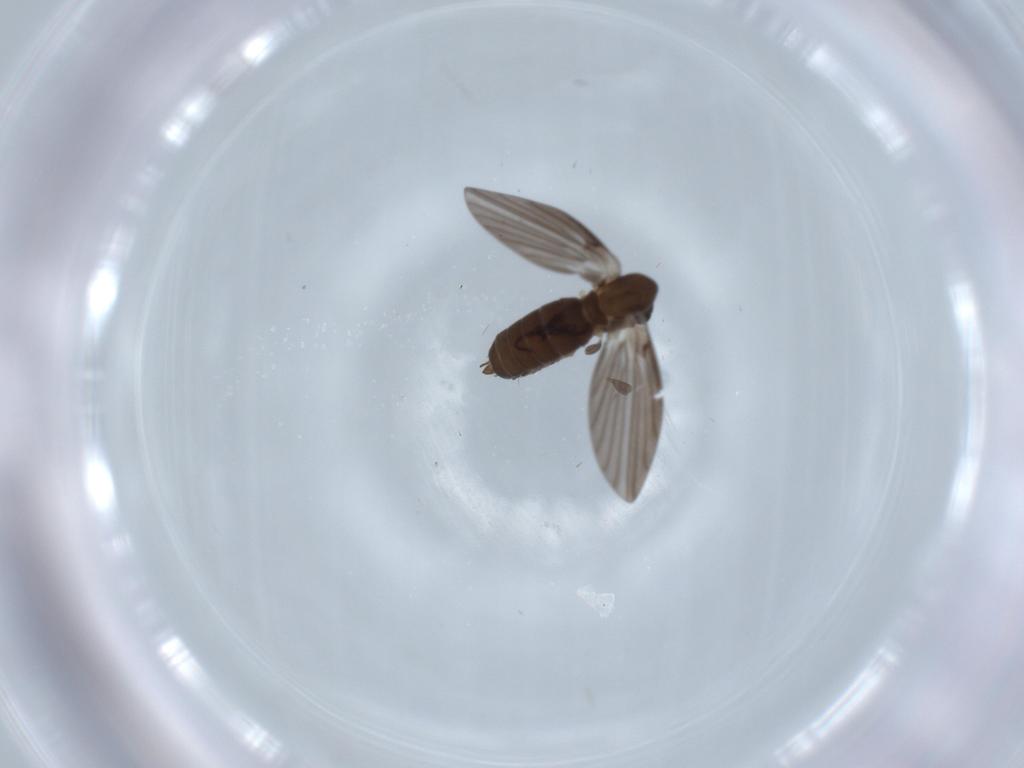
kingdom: Animalia
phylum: Arthropoda
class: Insecta
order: Diptera
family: Psychodidae
